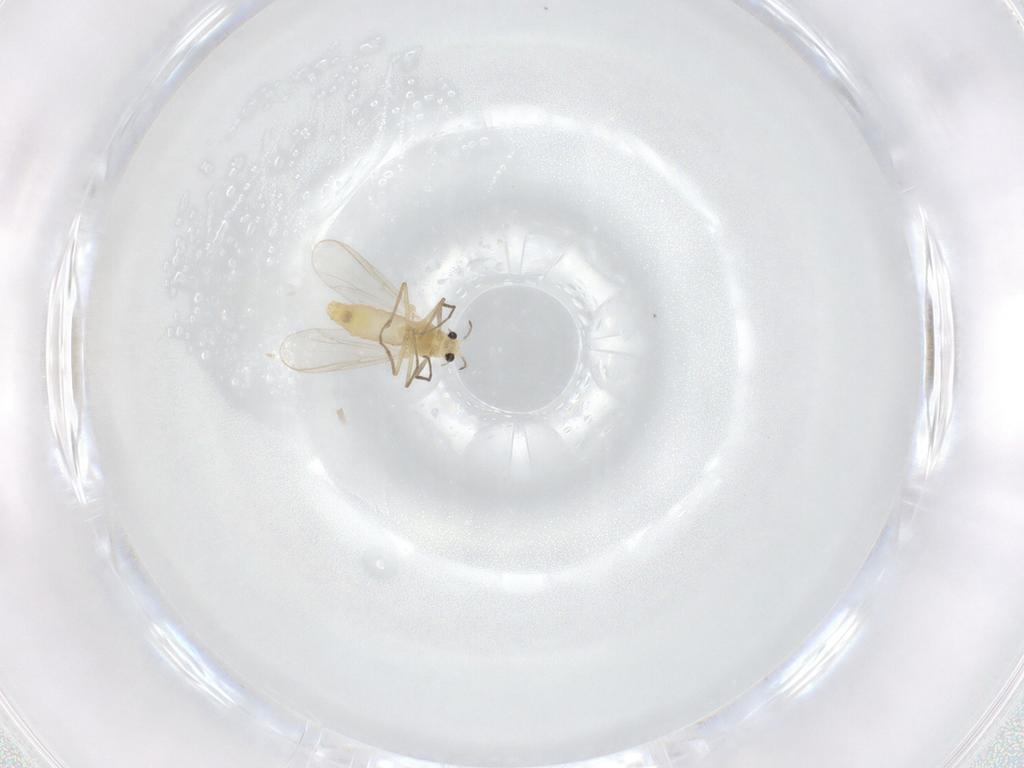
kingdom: Animalia
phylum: Arthropoda
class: Insecta
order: Diptera
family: Chironomidae
